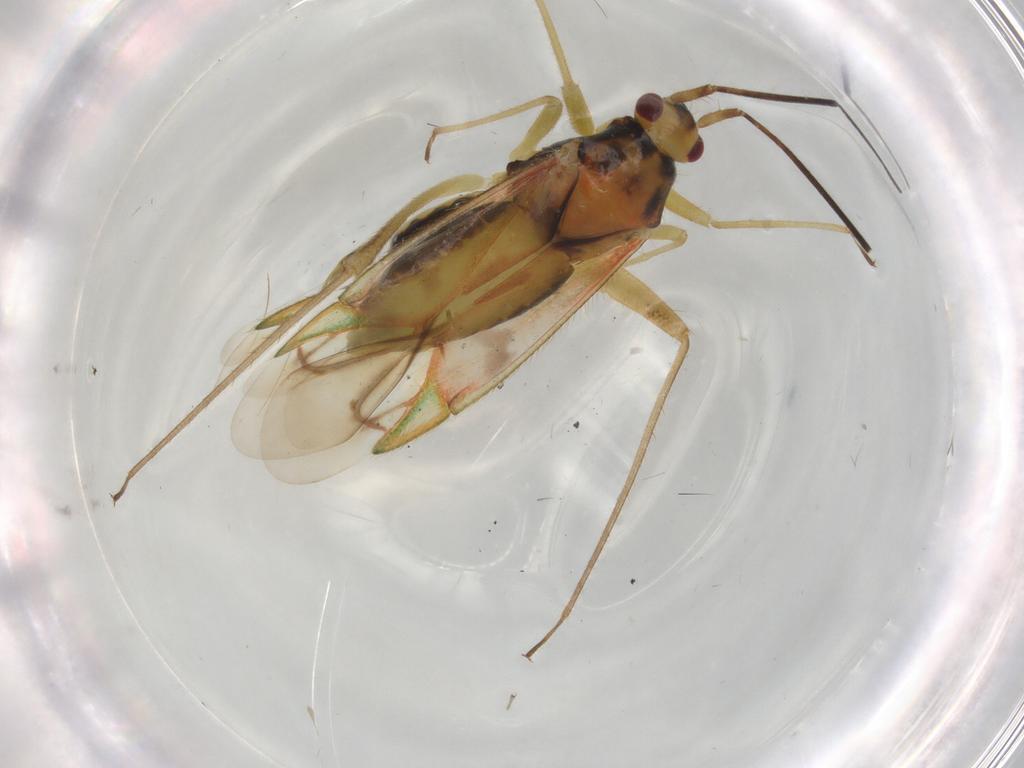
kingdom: Animalia
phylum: Arthropoda
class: Insecta
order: Hemiptera
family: Miridae
